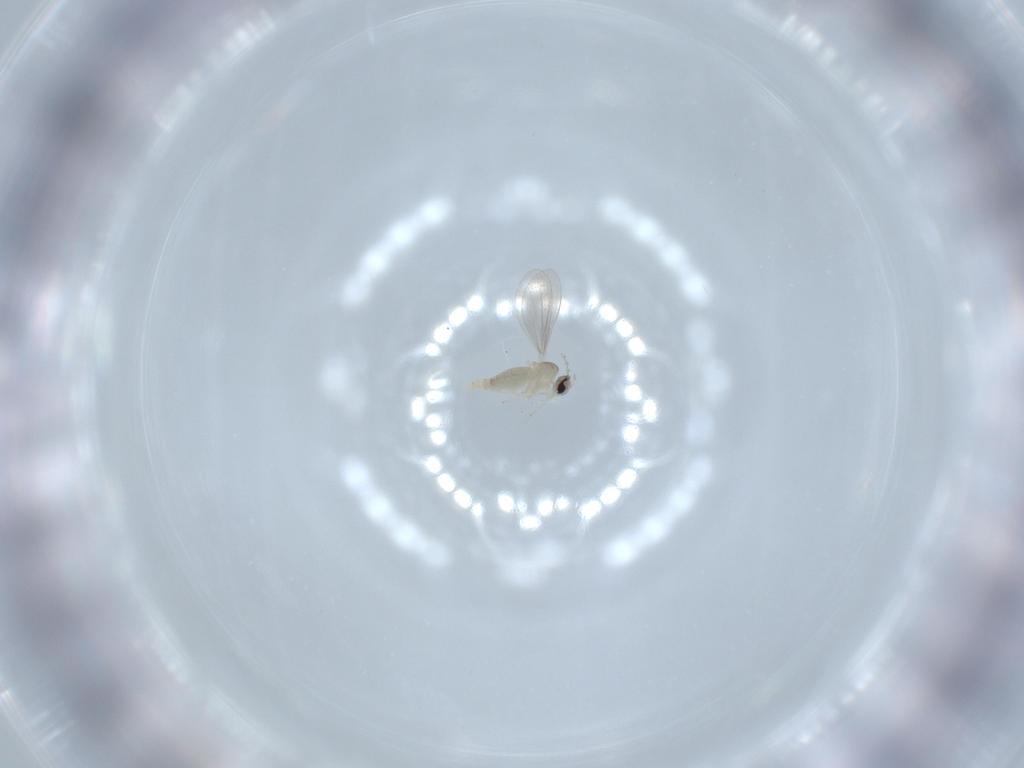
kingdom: Animalia
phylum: Arthropoda
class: Insecta
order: Diptera
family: Cecidomyiidae
